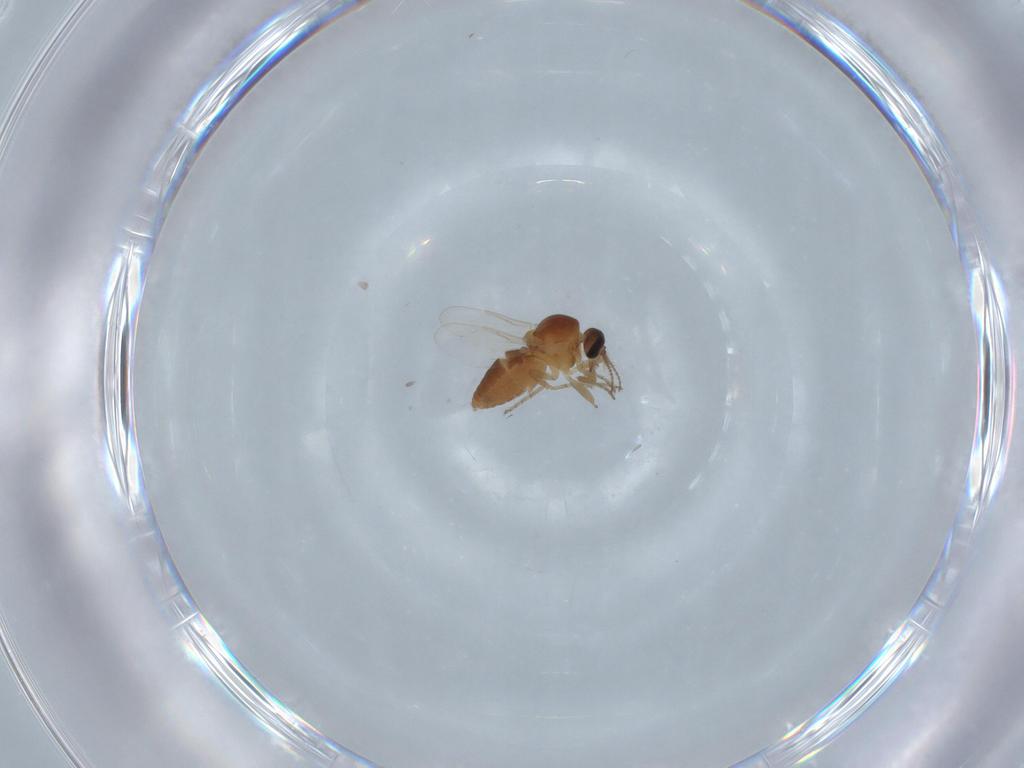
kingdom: Animalia
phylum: Arthropoda
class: Insecta
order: Diptera
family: Ceratopogonidae
